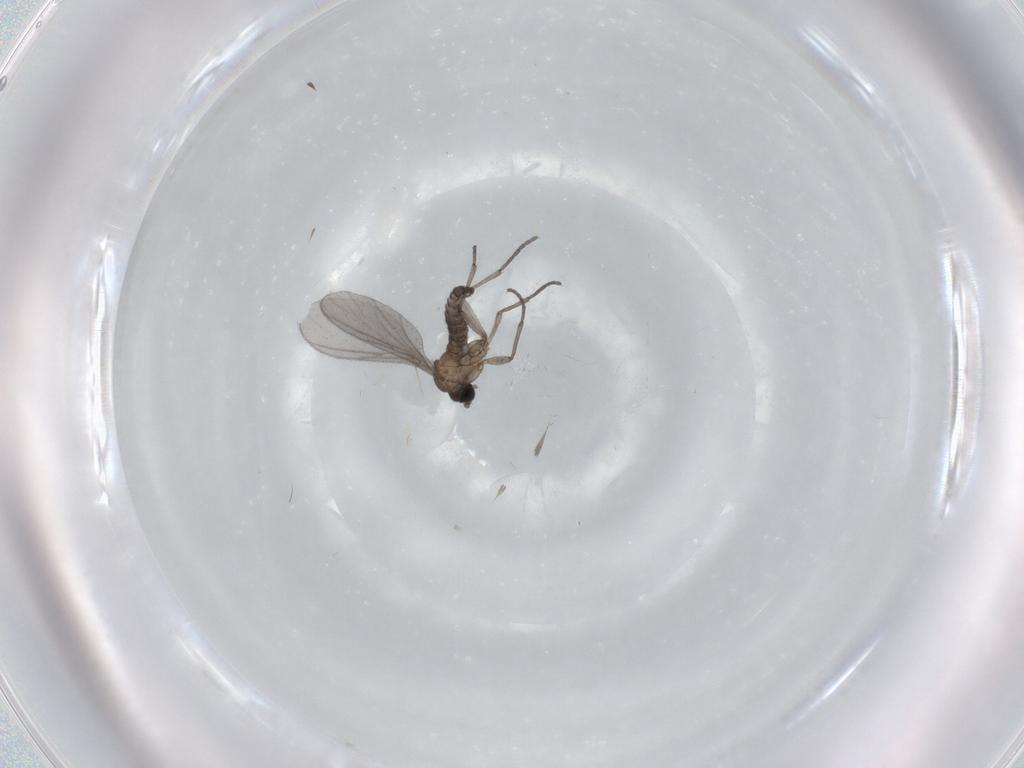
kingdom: Animalia
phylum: Arthropoda
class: Insecta
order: Diptera
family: Sciaridae
